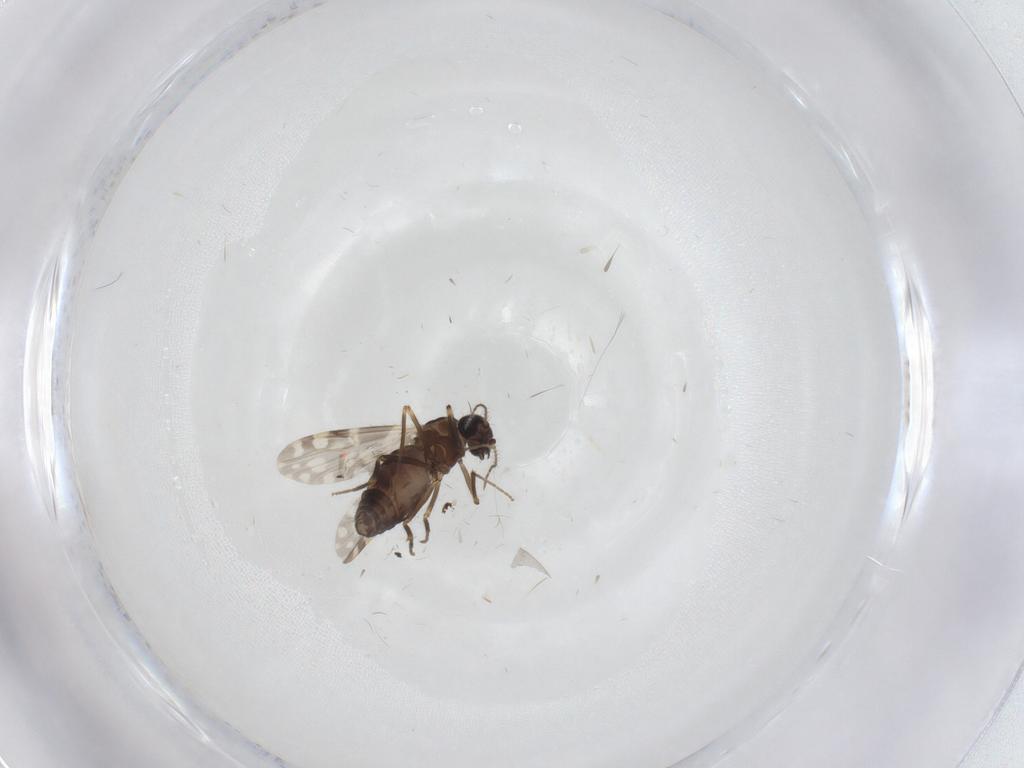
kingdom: Animalia
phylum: Arthropoda
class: Insecta
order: Diptera
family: Ceratopogonidae
